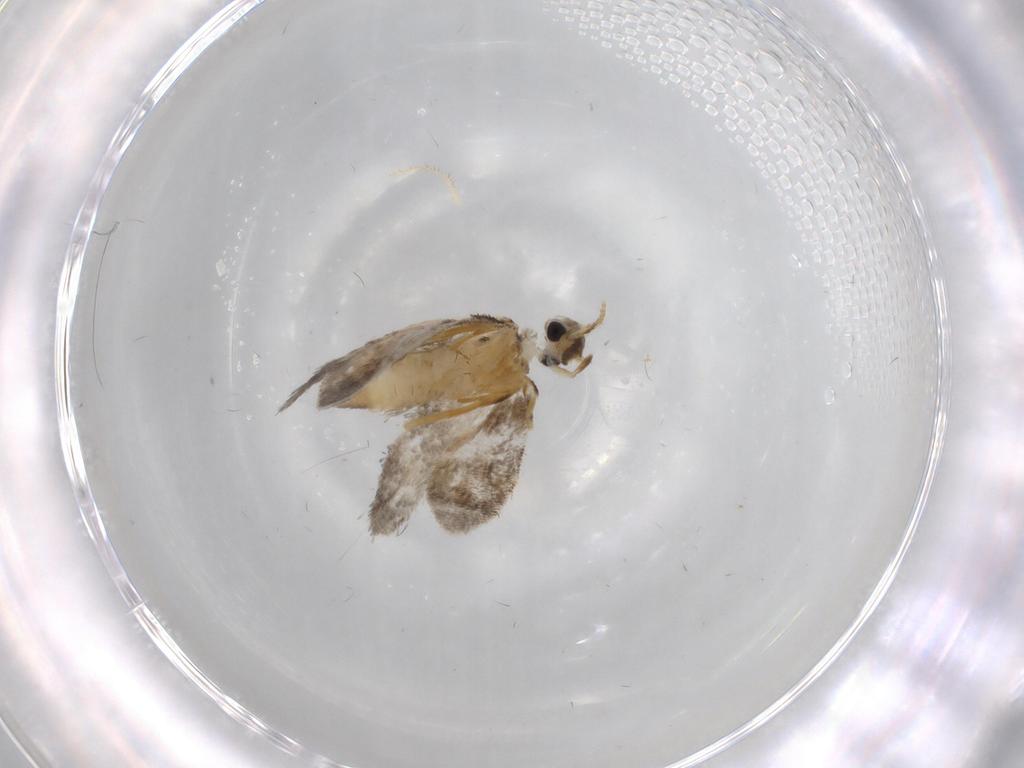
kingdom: Animalia
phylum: Arthropoda
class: Insecta
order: Lepidoptera
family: Psychidae
